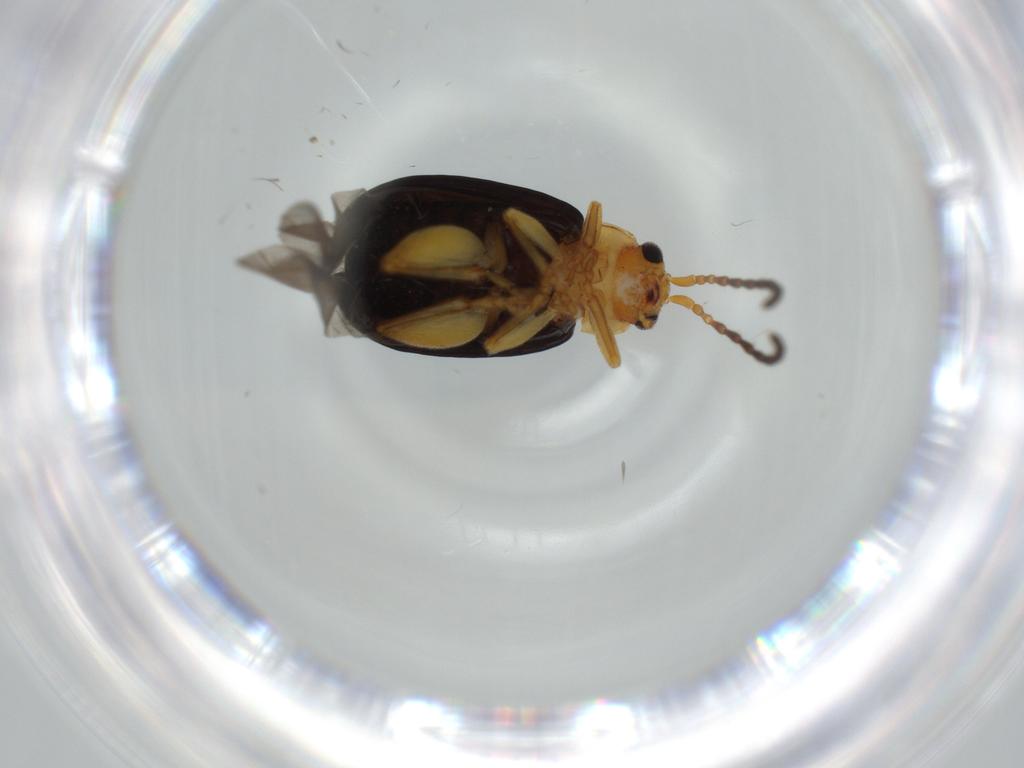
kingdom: Animalia
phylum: Arthropoda
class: Insecta
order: Coleoptera
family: Chrysomelidae
